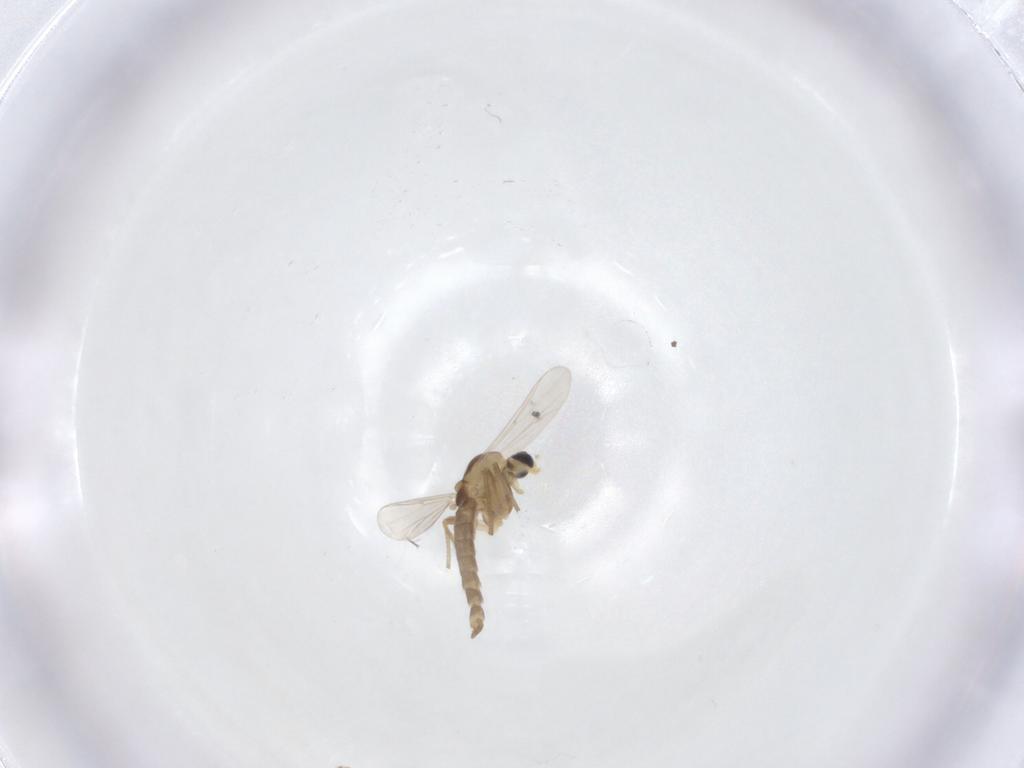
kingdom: Animalia
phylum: Arthropoda
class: Insecta
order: Diptera
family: Chironomidae
